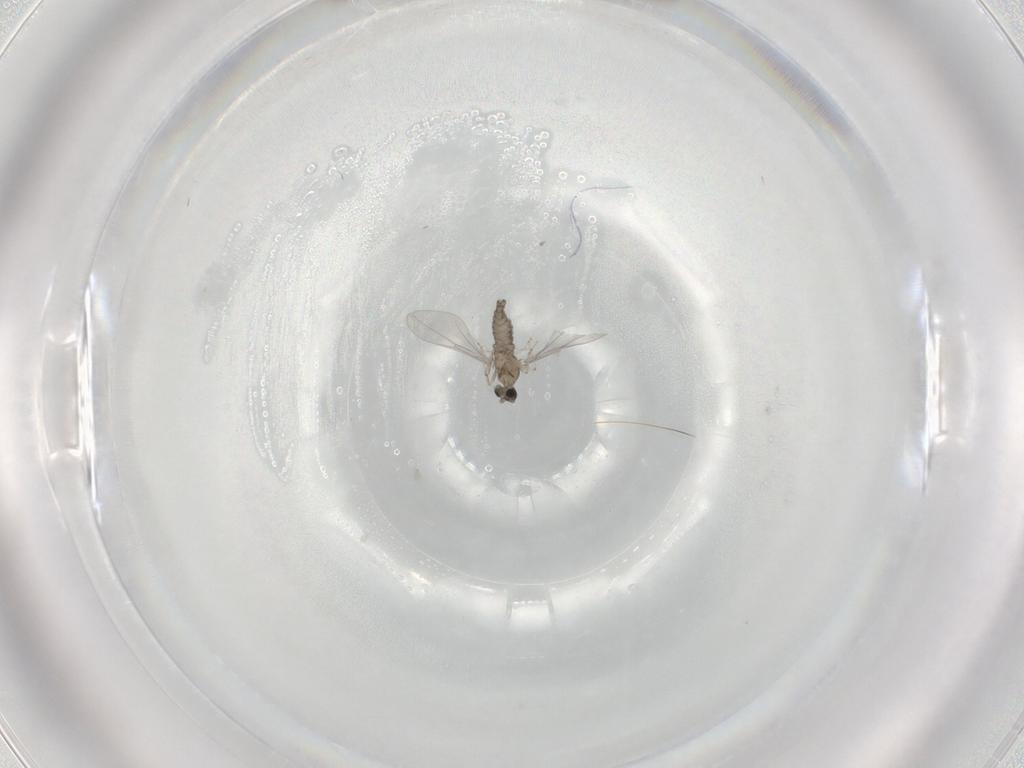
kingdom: Animalia
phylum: Arthropoda
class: Insecta
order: Diptera
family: Cecidomyiidae
